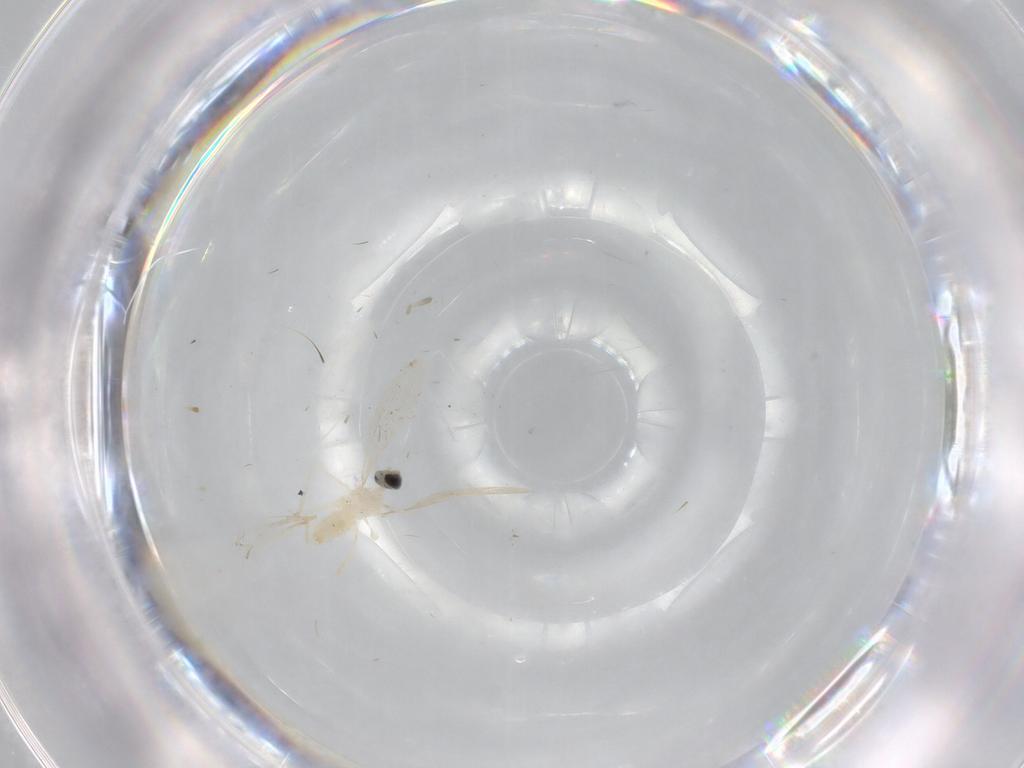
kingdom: Animalia
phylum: Arthropoda
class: Insecta
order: Diptera
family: Cecidomyiidae
